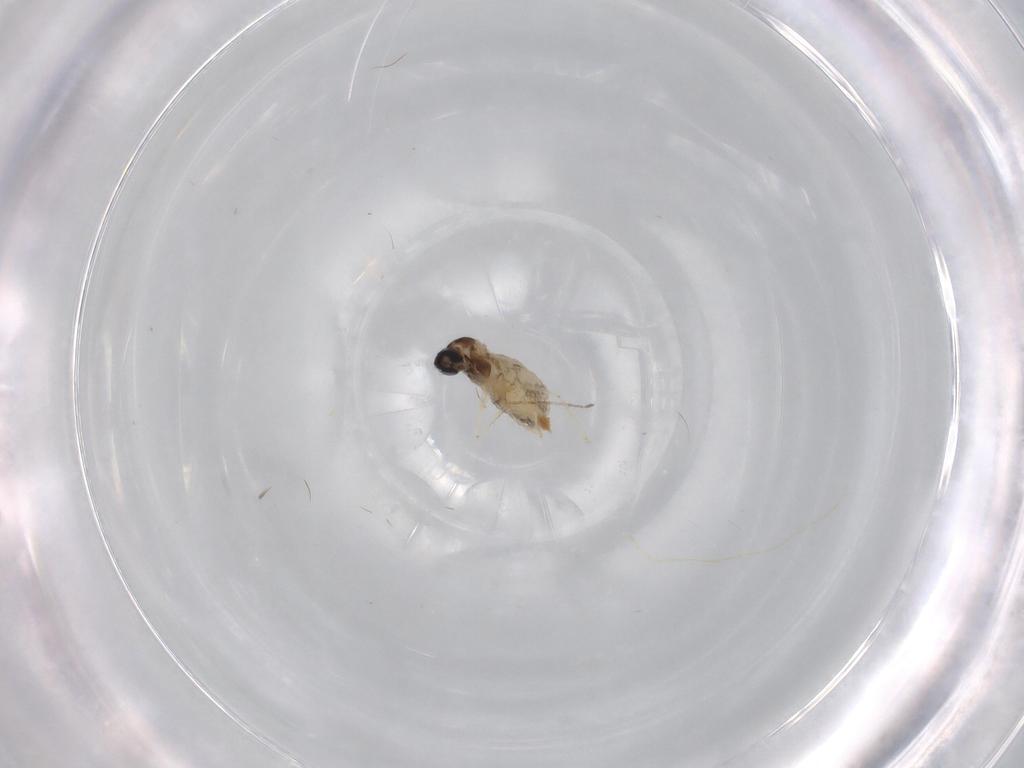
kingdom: Animalia
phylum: Arthropoda
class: Insecta
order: Diptera
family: Cecidomyiidae
